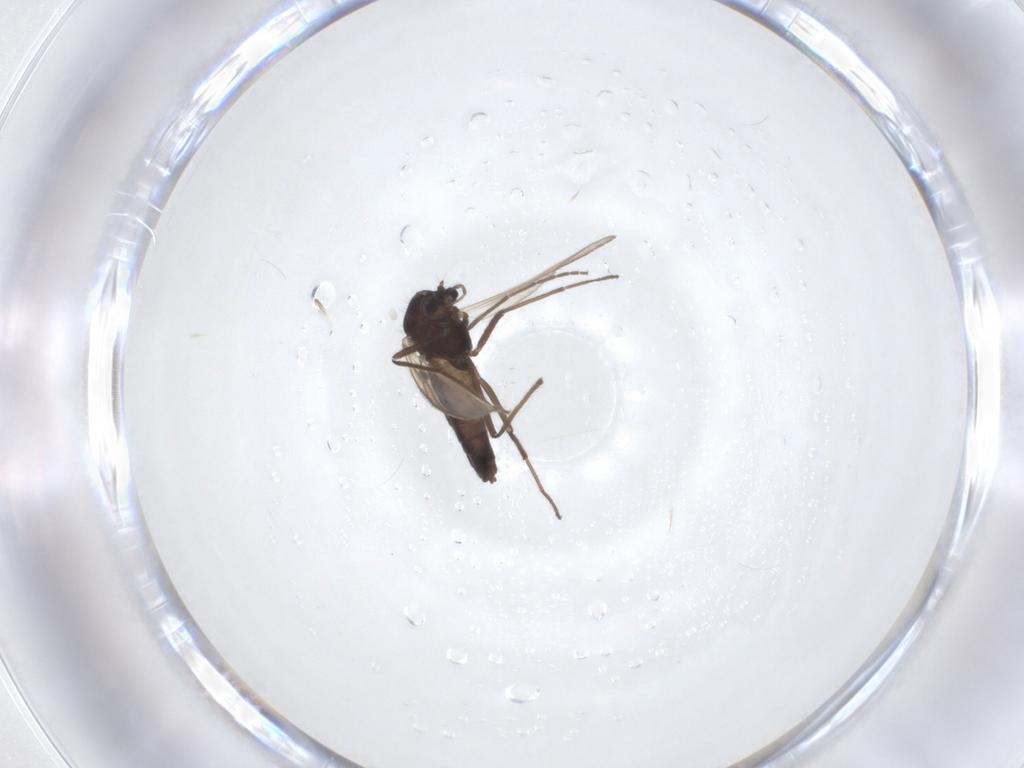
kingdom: Animalia
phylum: Arthropoda
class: Insecta
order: Diptera
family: Chironomidae
